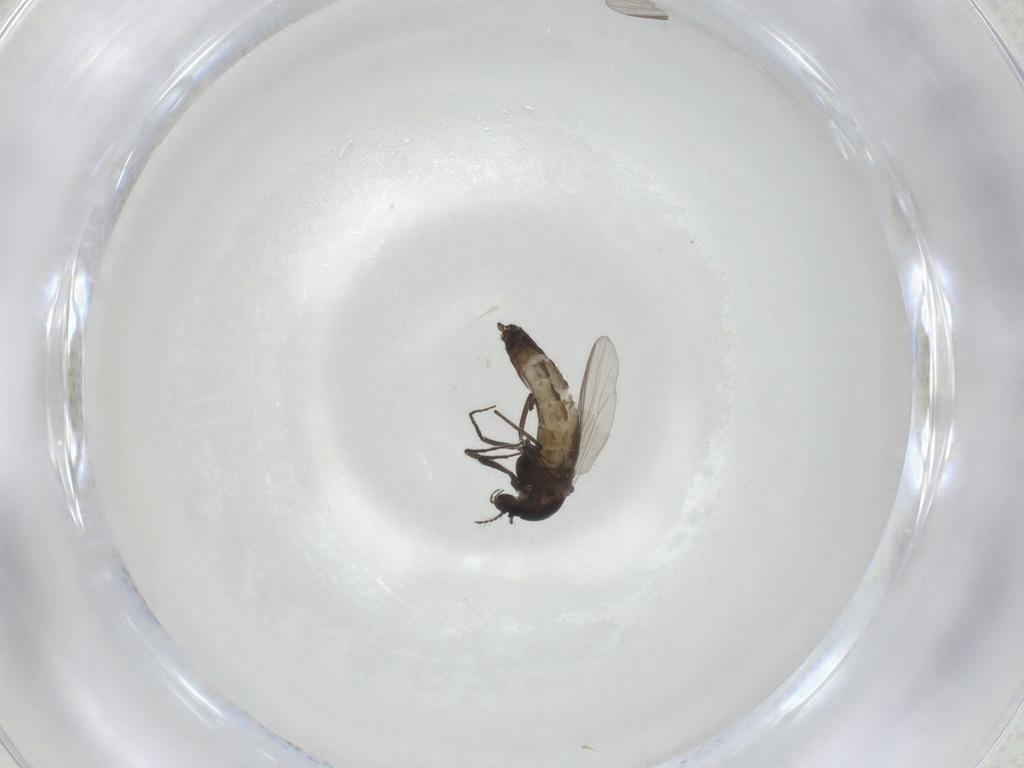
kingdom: Animalia
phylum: Arthropoda
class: Insecta
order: Diptera
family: Chironomidae
